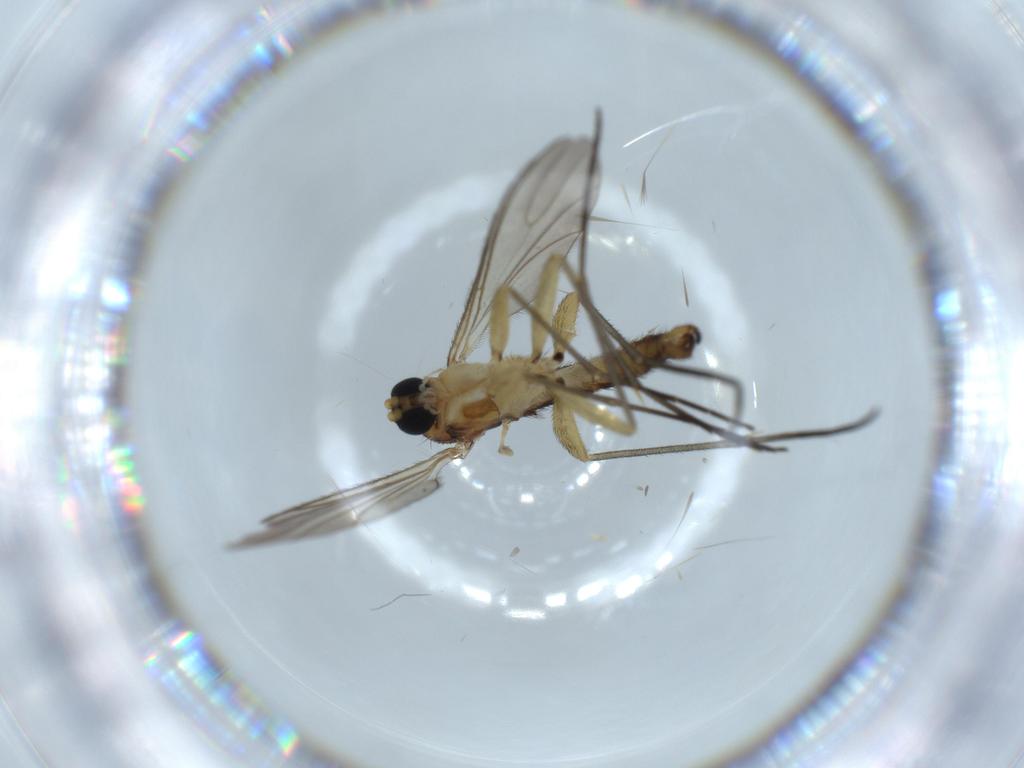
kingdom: Animalia
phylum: Arthropoda
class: Insecta
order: Diptera
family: Sciaridae
